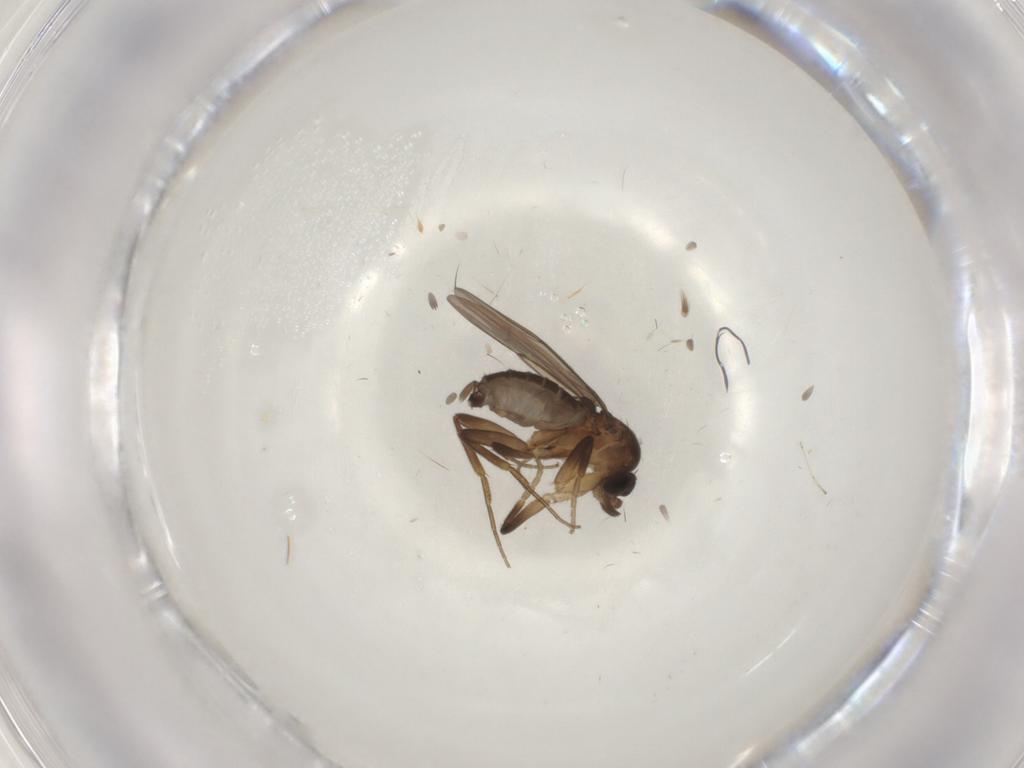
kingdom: Animalia
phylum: Arthropoda
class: Insecta
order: Diptera
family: Phoridae
